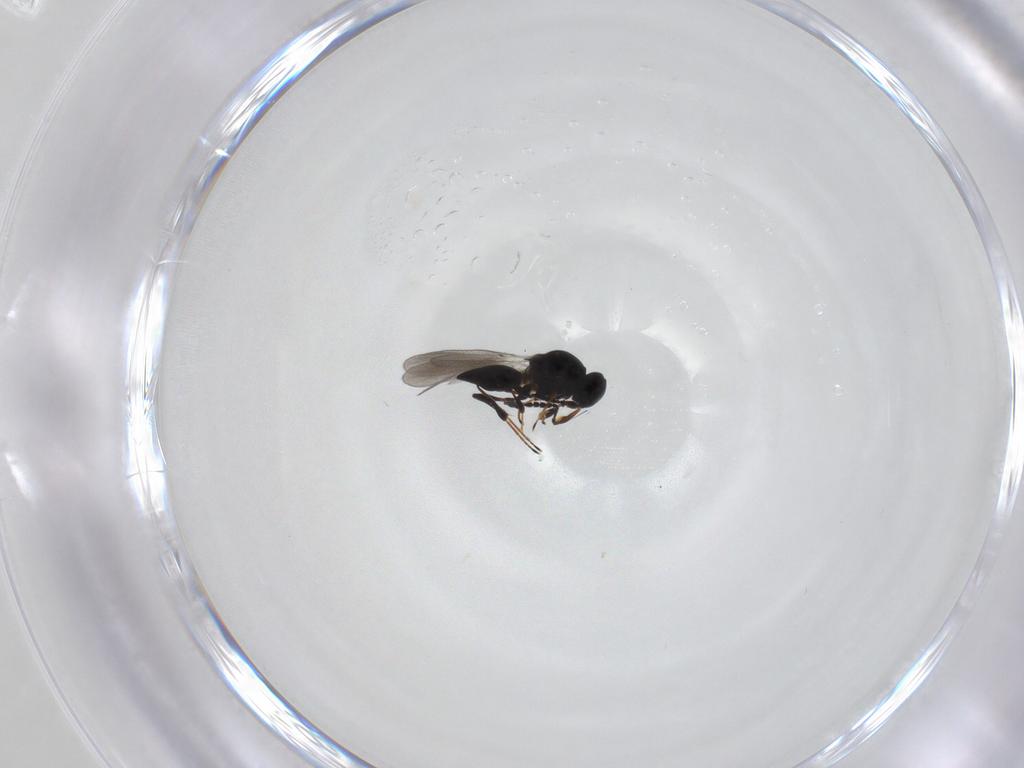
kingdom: Animalia
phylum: Arthropoda
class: Insecta
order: Hymenoptera
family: Platygastridae
